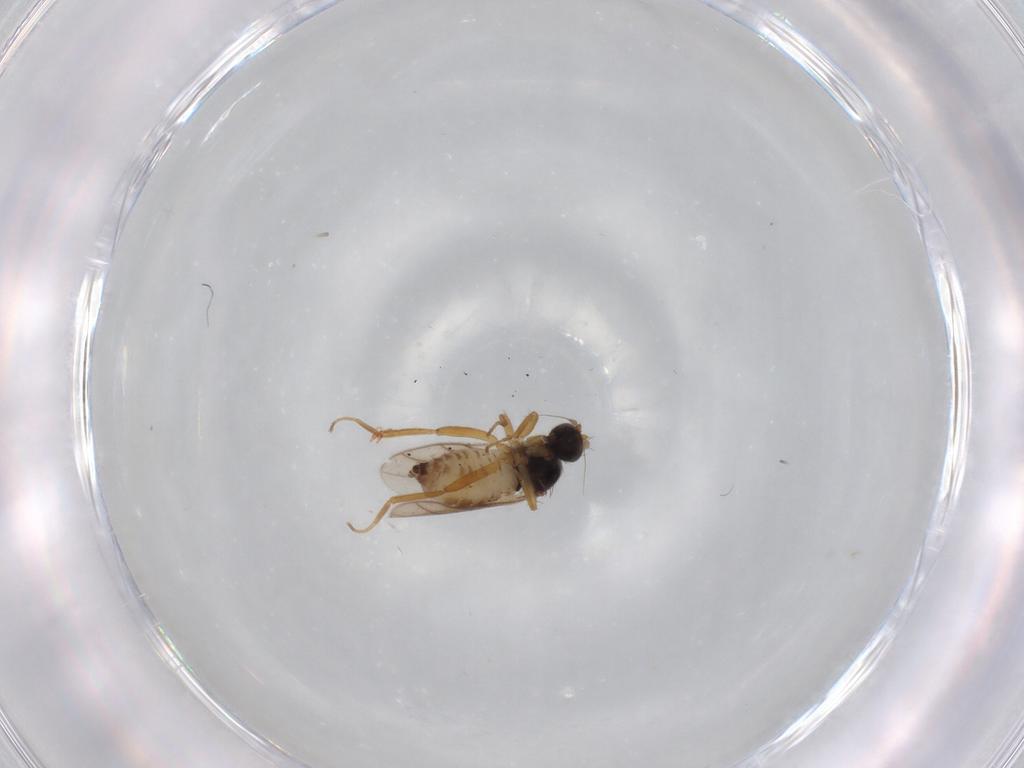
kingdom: Animalia
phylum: Arthropoda
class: Insecta
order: Diptera
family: Hybotidae
